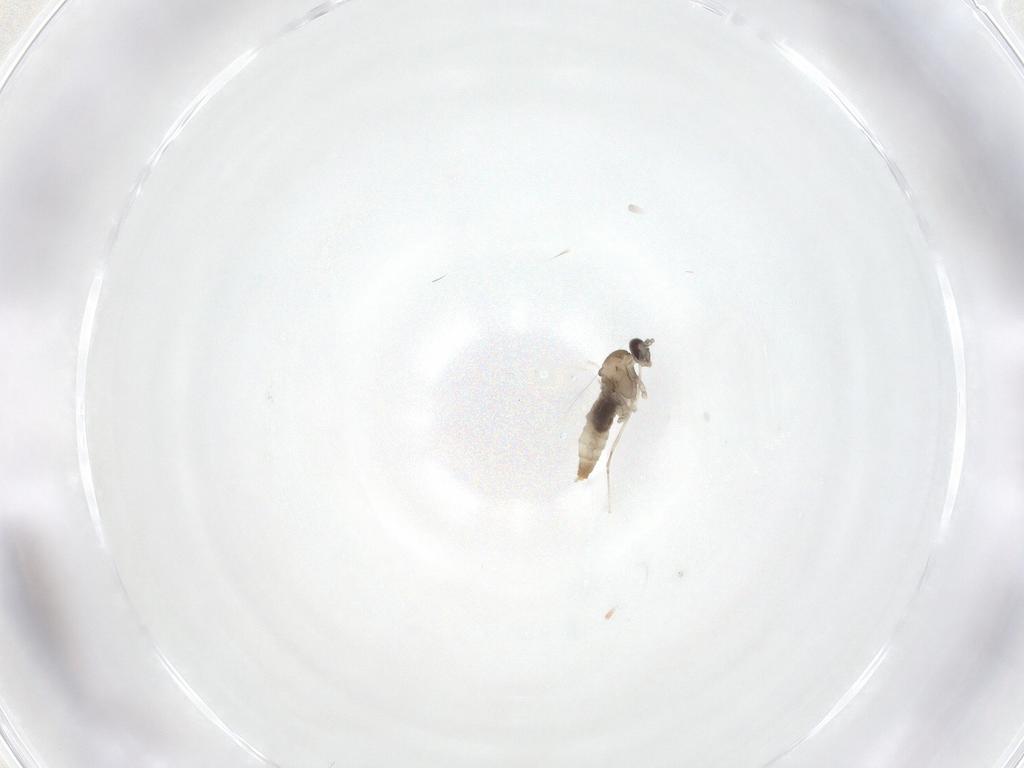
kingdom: Animalia
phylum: Arthropoda
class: Insecta
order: Diptera
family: Cecidomyiidae
